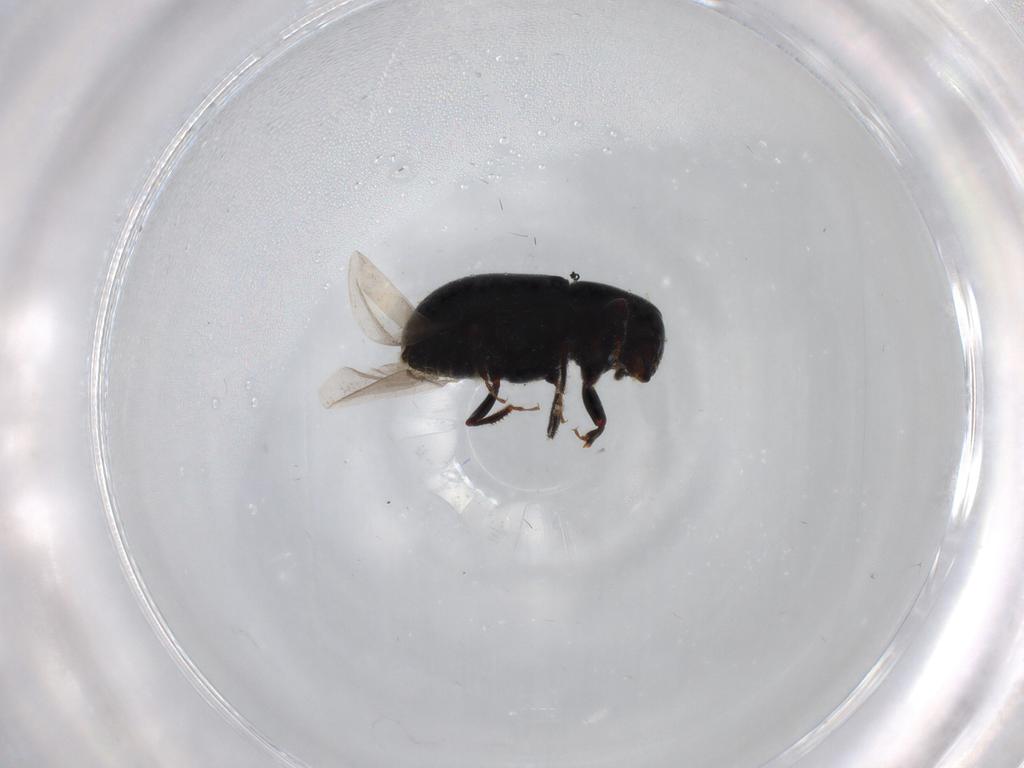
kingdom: Animalia
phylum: Arthropoda
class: Insecta
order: Coleoptera
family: Curculionidae
